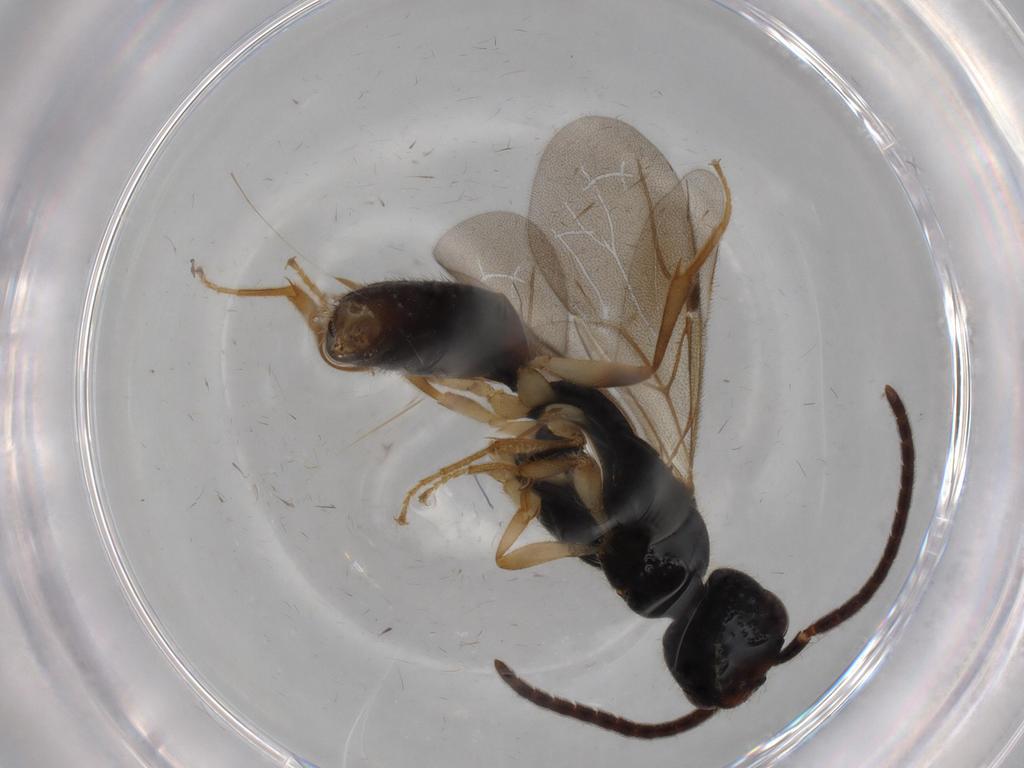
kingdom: Animalia
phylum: Arthropoda
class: Insecta
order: Hymenoptera
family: Bethylidae
